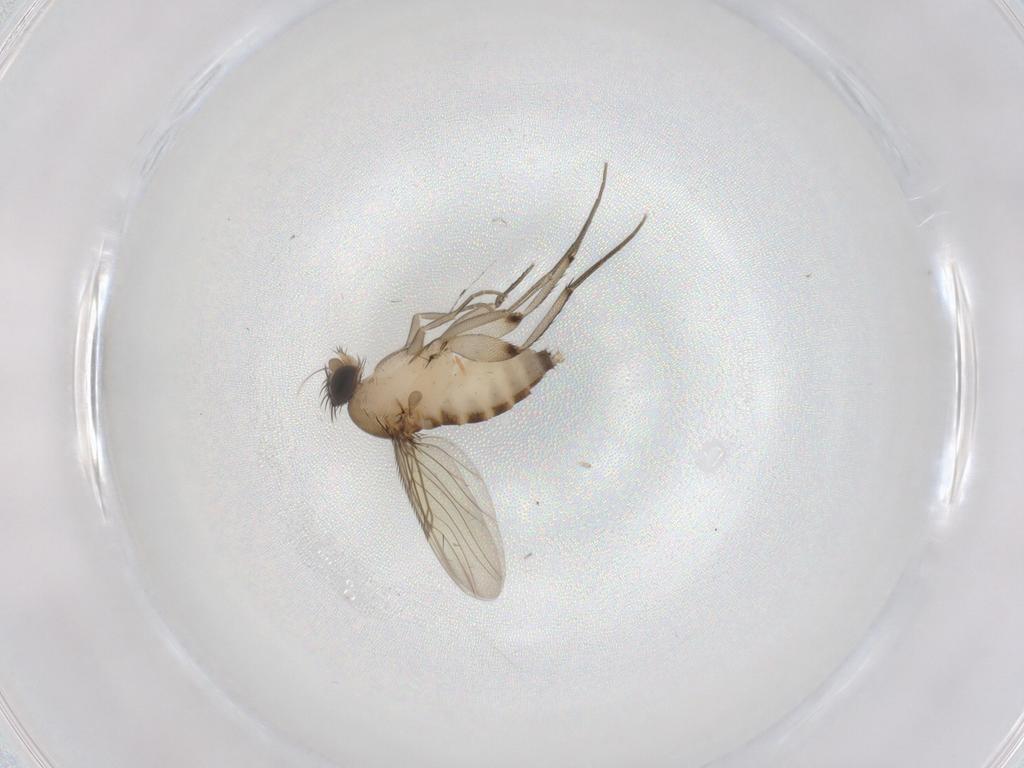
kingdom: Animalia
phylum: Arthropoda
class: Insecta
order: Diptera
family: Phoridae
